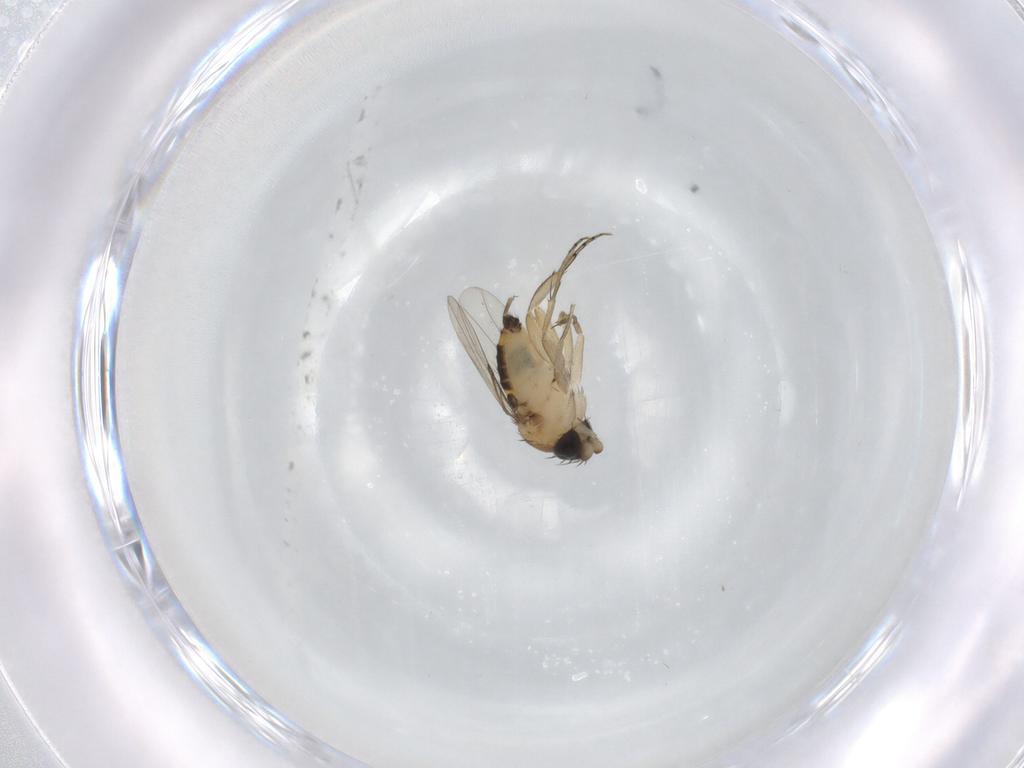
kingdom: Animalia
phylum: Arthropoda
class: Insecta
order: Diptera
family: Phoridae
